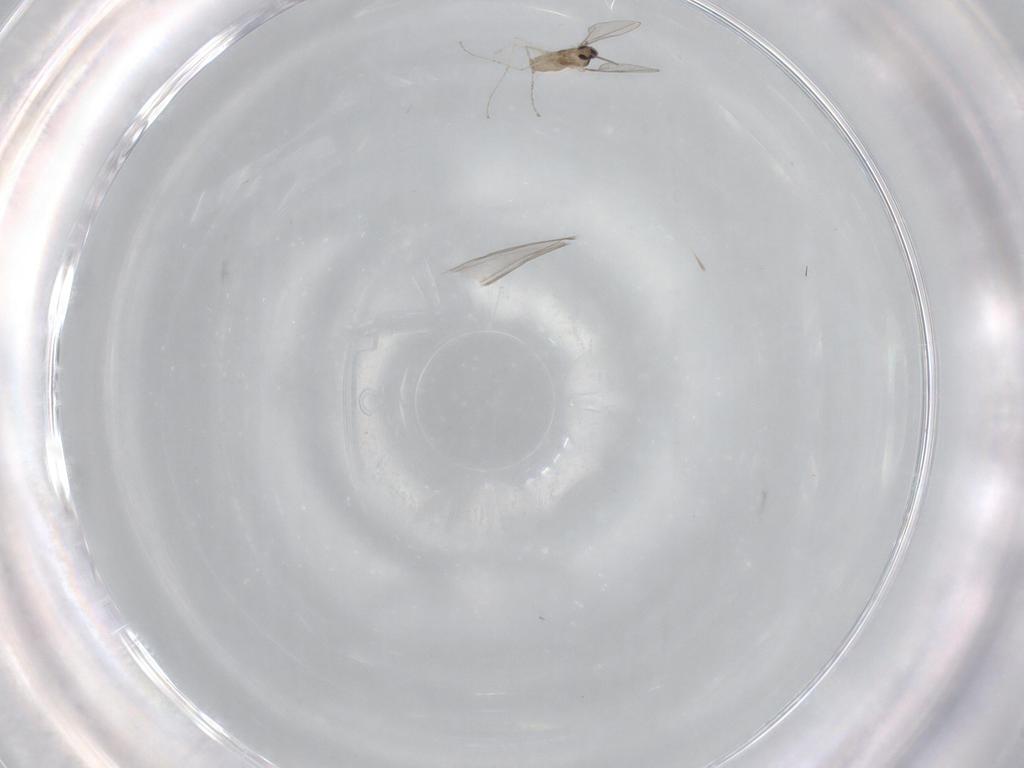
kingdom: Animalia
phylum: Arthropoda
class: Insecta
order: Diptera
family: Cecidomyiidae
